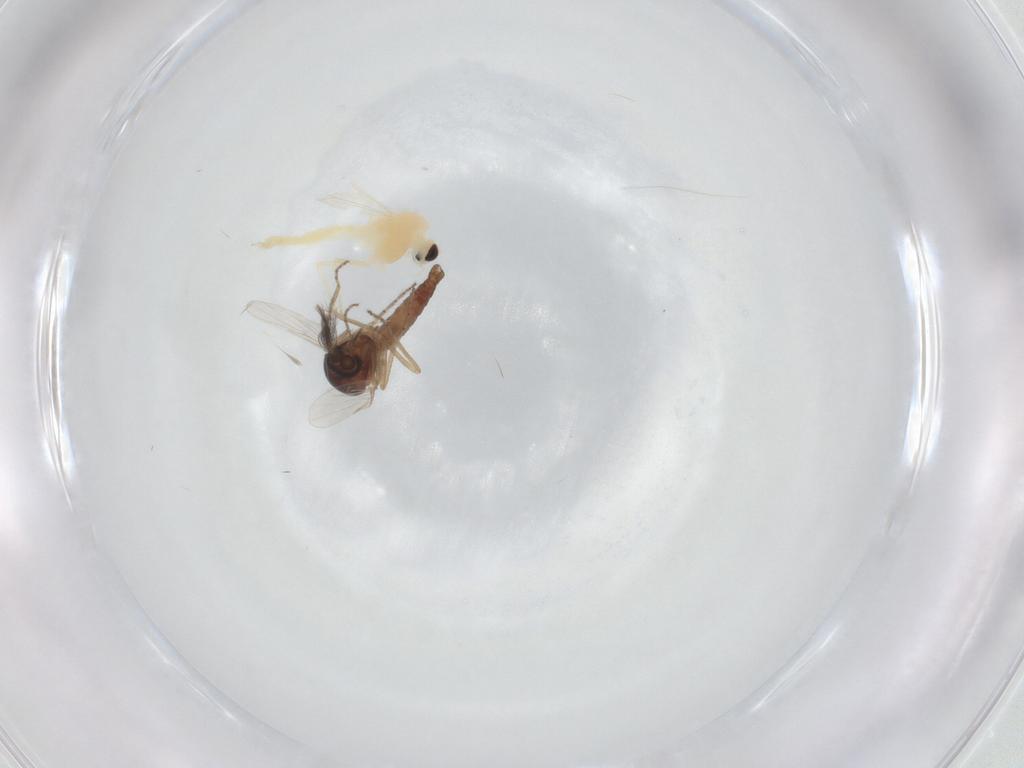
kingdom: Animalia
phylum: Arthropoda
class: Insecta
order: Diptera
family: Chironomidae
